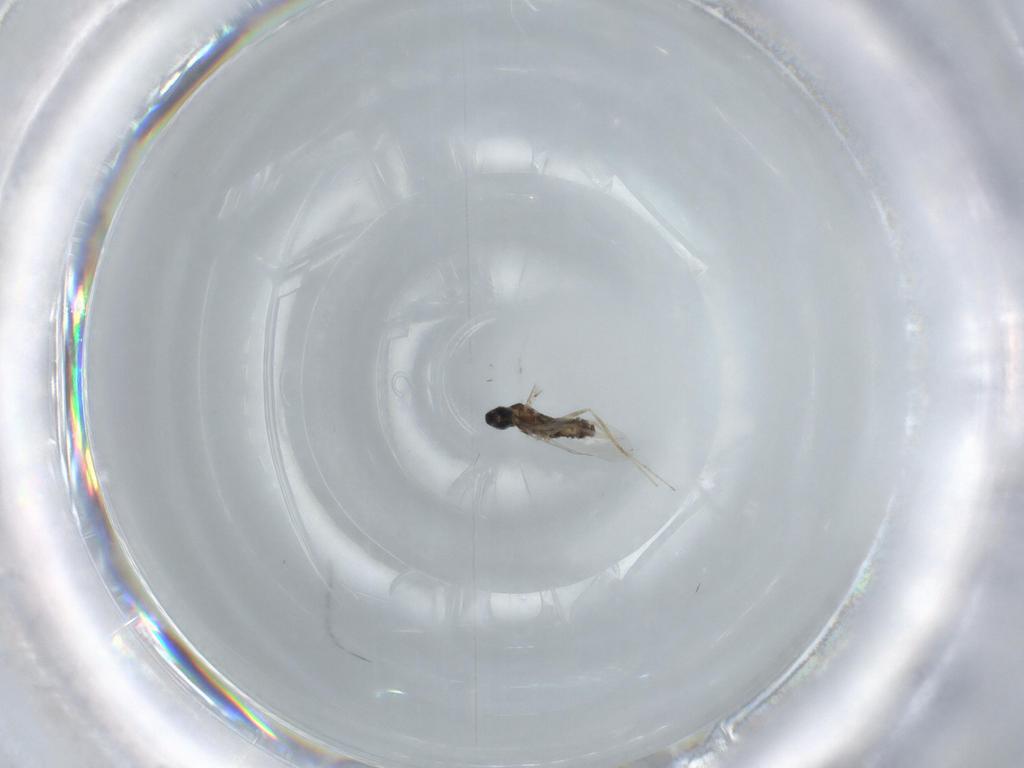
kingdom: Animalia
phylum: Arthropoda
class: Insecta
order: Diptera
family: Cecidomyiidae
